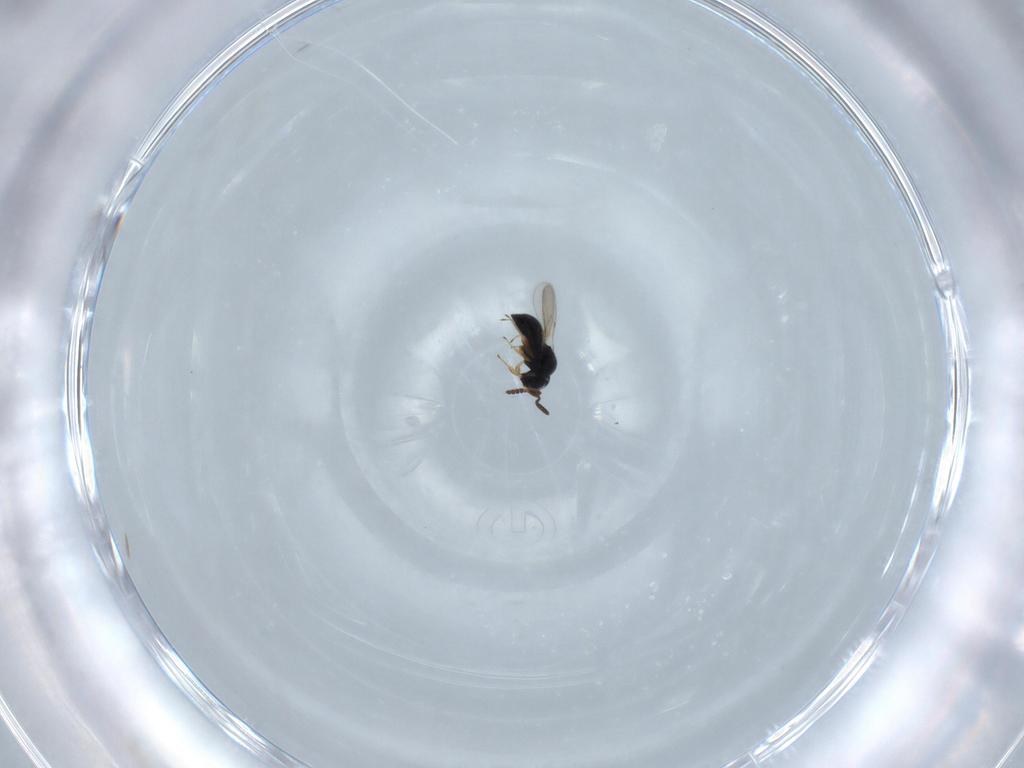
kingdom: Animalia
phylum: Arthropoda
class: Insecta
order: Hymenoptera
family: Scelionidae
